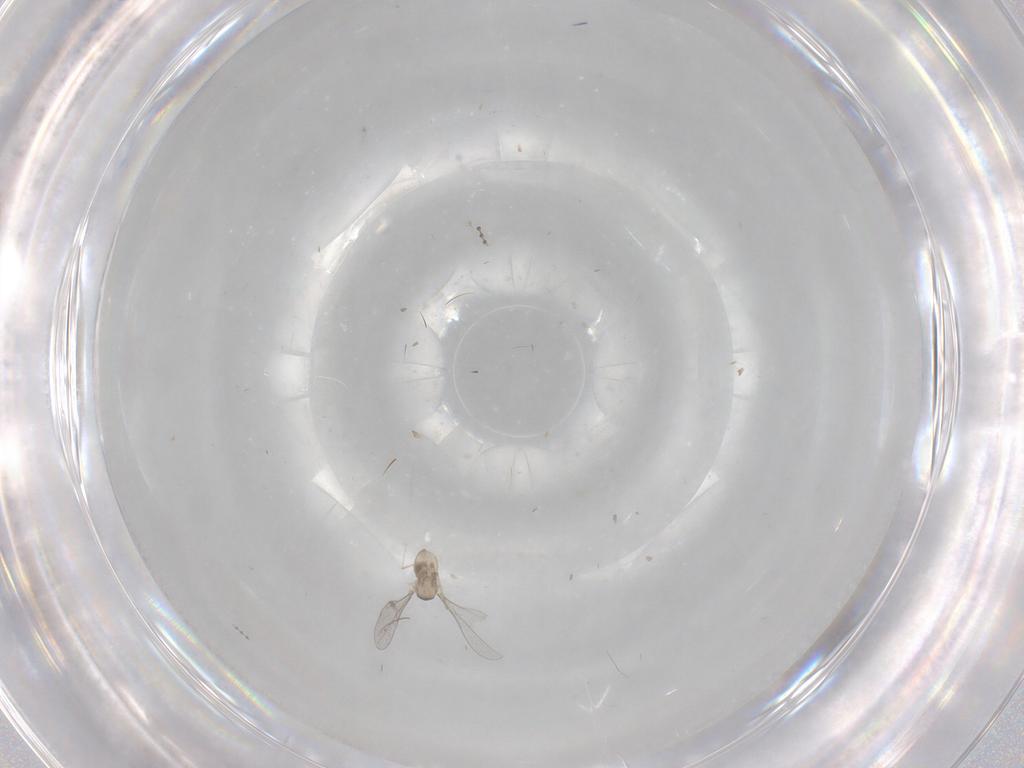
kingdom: Animalia
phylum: Arthropoda
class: Insecta
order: Diptera
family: Cecidomyiidae
